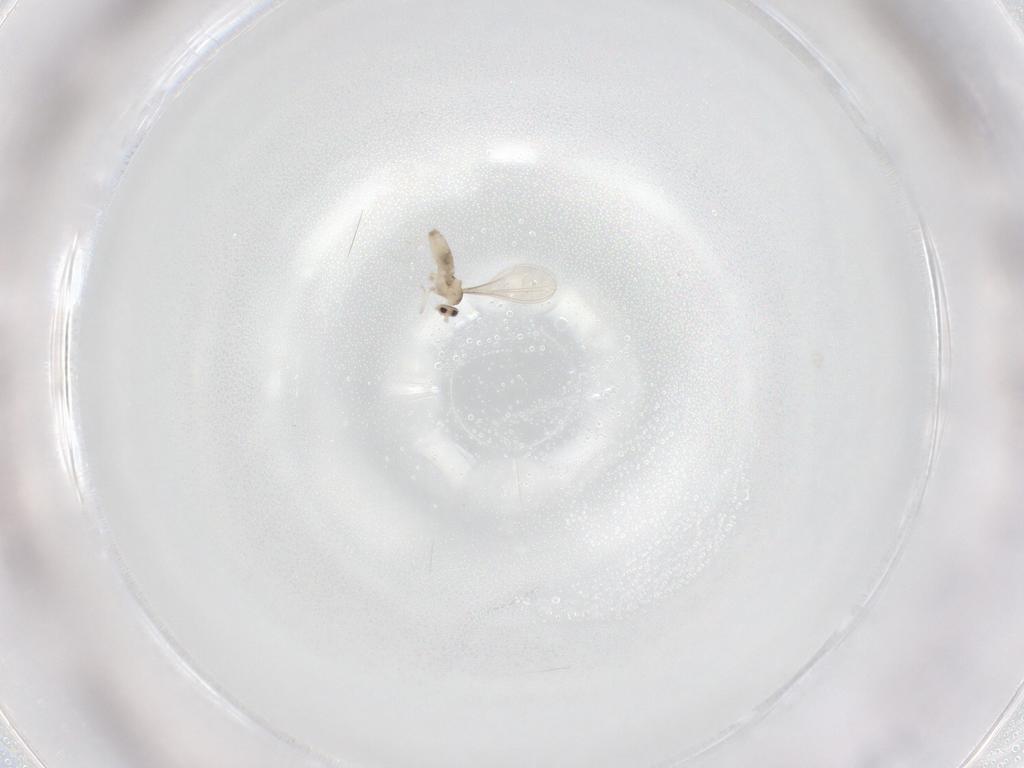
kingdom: Animalia
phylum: Arthropoda
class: Insecta
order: Diptera
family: Cecidomyiidae
